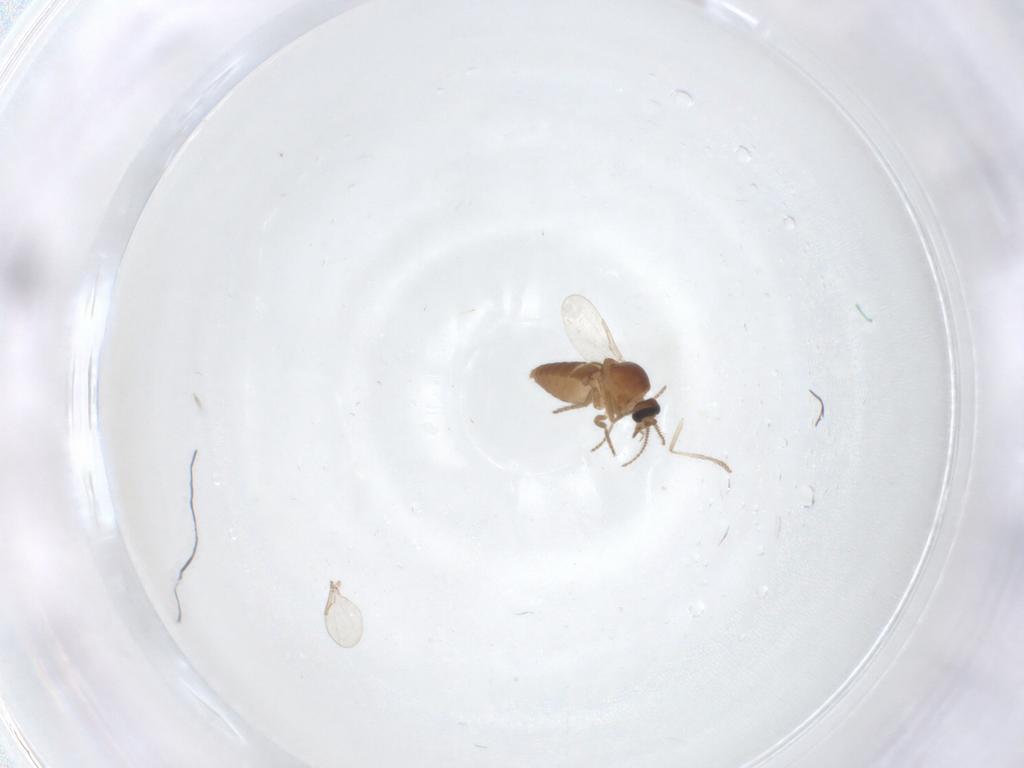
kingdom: Animalia
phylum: Arthropoda
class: Insecta
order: Diptera
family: Ceratopogonidae
